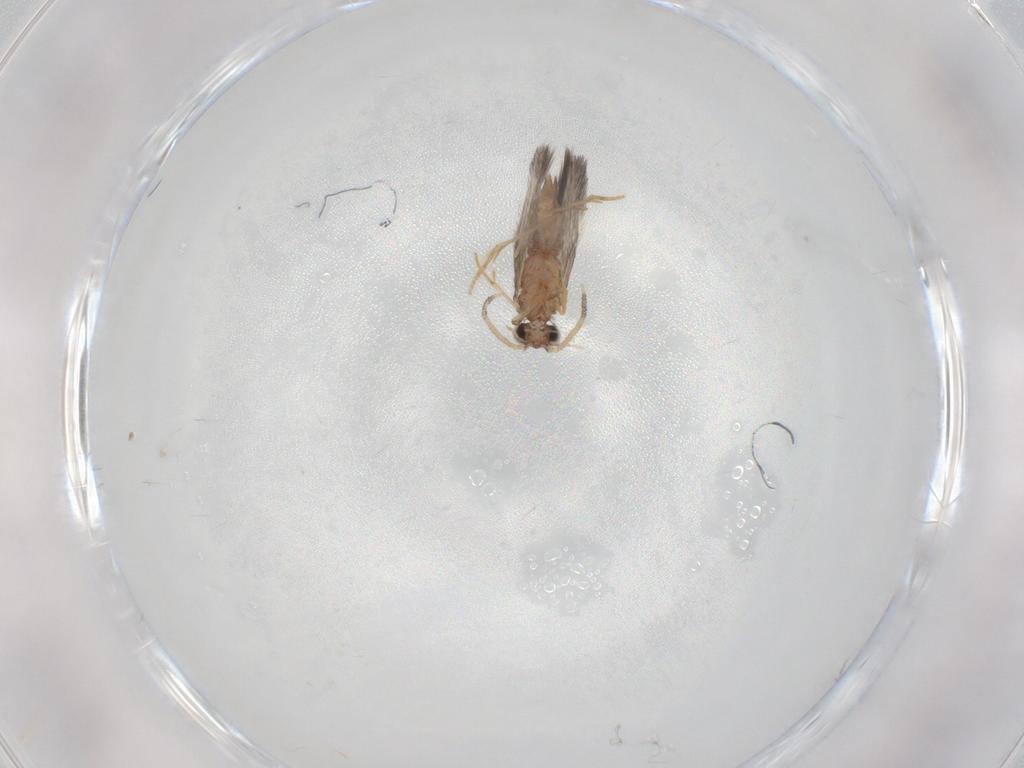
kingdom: Animalia
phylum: Arthropoda
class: Insecta
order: Trichoptera
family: Hydroptilidae
